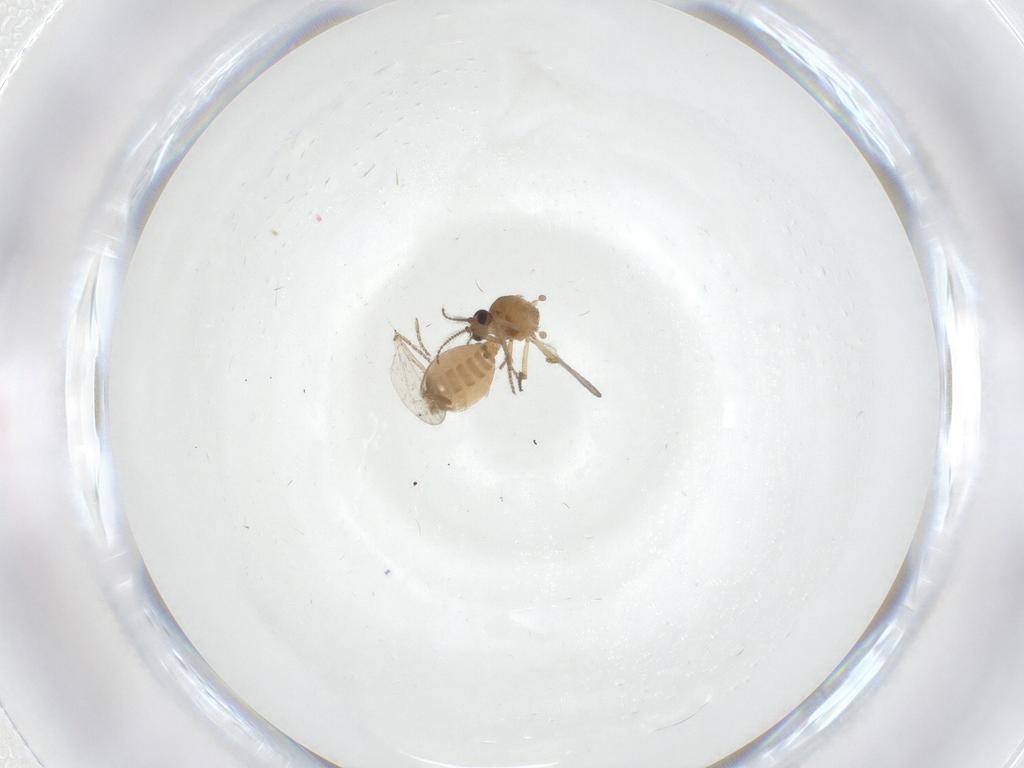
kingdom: Animalia
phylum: Arthropoda
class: Insecta
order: Diptera
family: Ceratopogonidae
